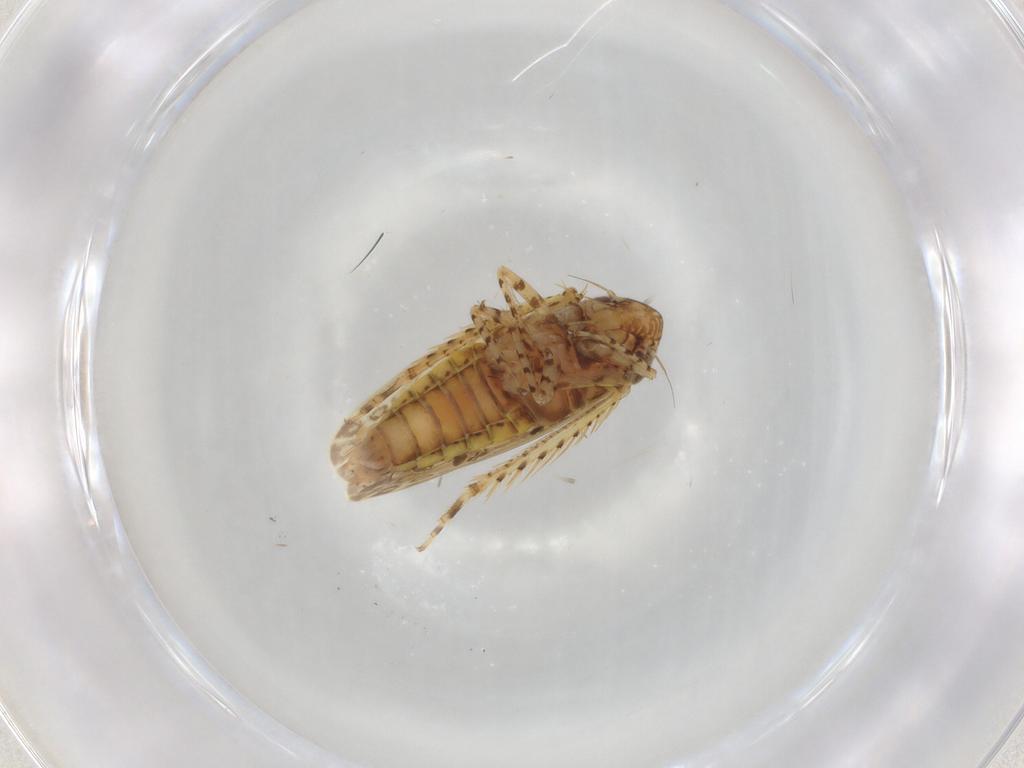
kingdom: Animalia
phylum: Arthropoda
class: Insecta
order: Hemiptera
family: Cicadellidae
